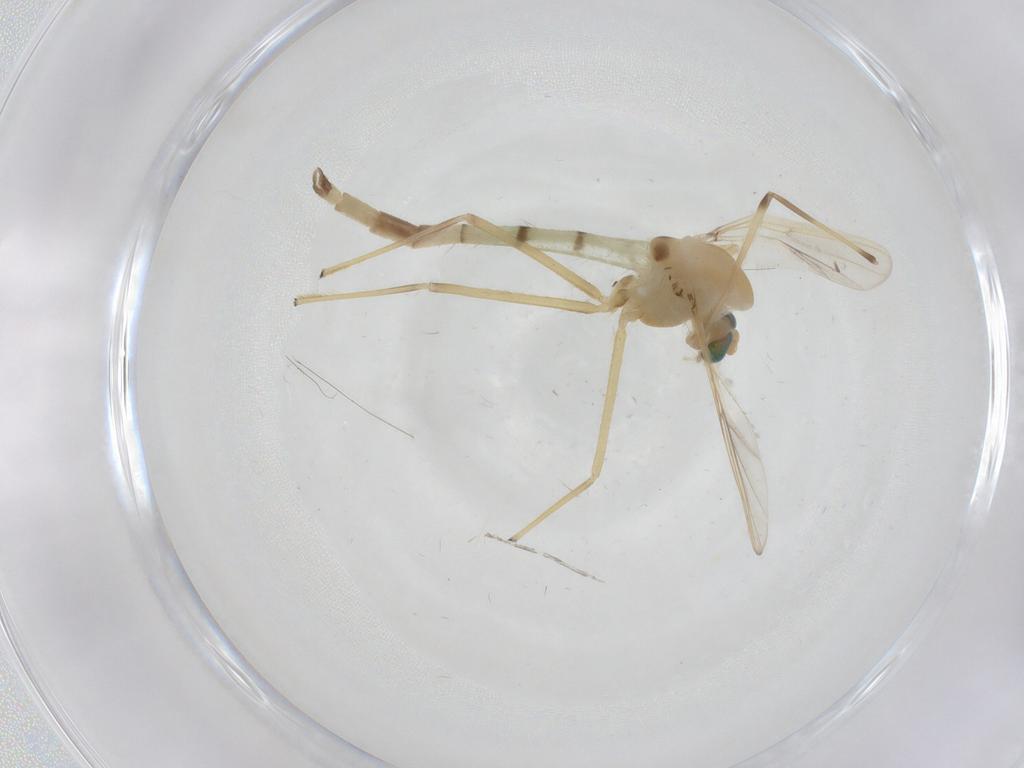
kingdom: Animalia
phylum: Arthropoda
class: Insecta
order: Diptera
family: Chironomidae
